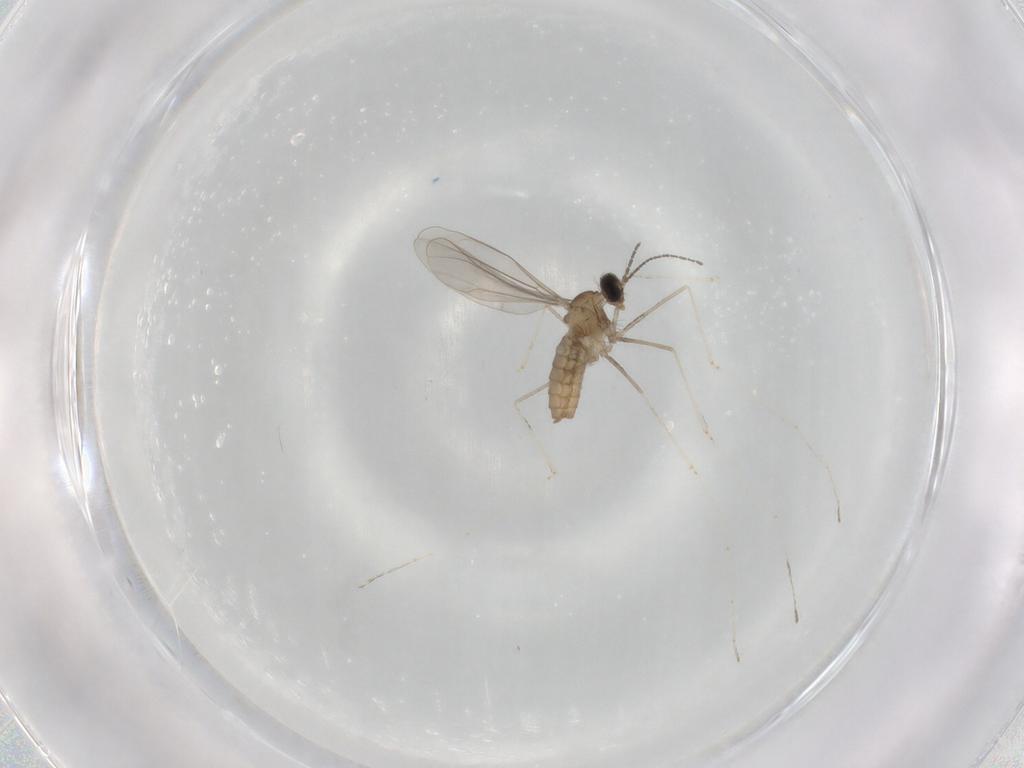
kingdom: Animalia
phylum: Arthropoda
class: Insecta
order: Diptera
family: Cecidomyiidae
